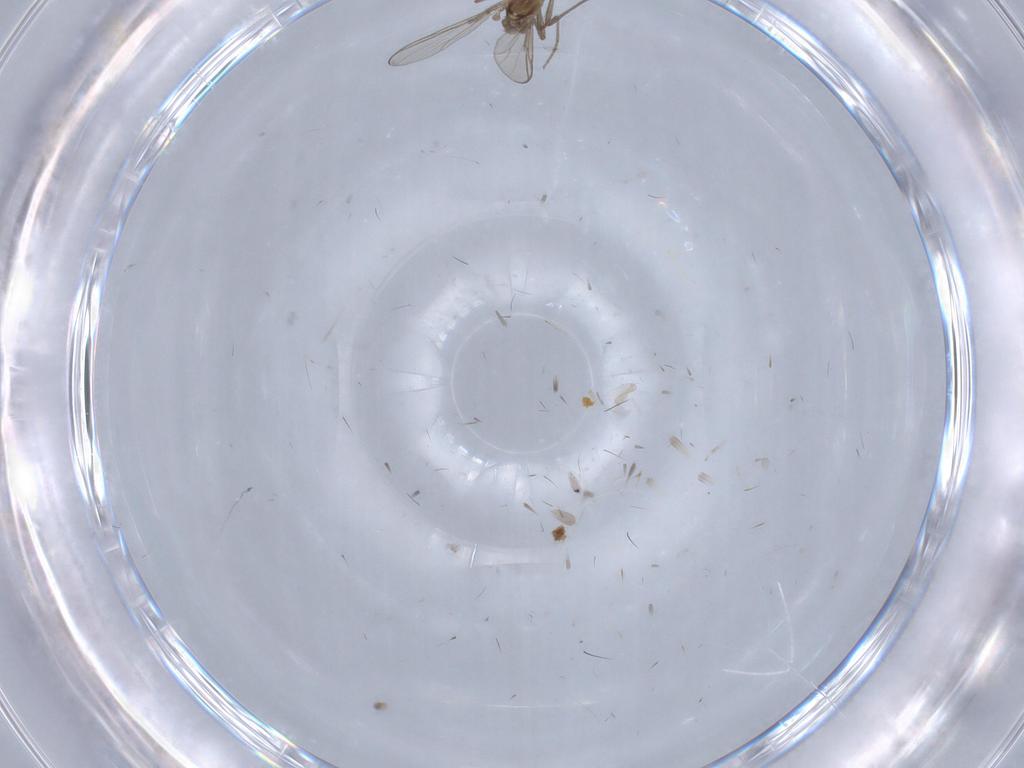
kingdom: Animalia
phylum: Arthropoda
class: Insecta
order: Diptera
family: Chironomidae
